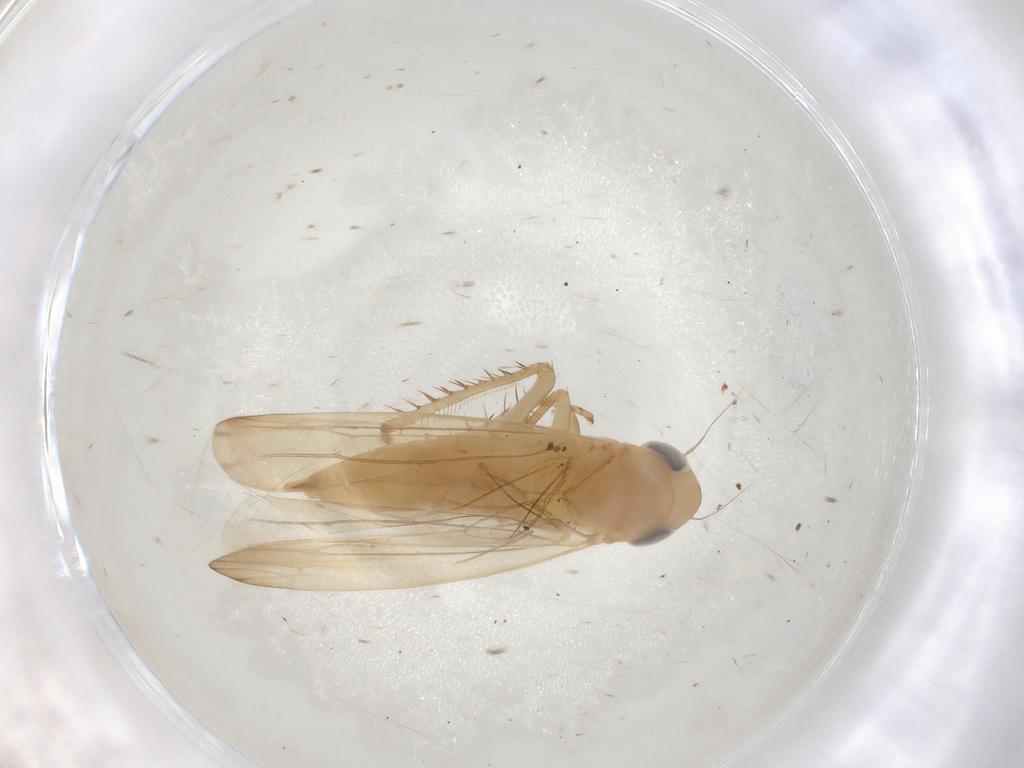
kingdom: Animalia
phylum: Arthropoda
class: Insecta
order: Hemiptera
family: Cicadellidae
